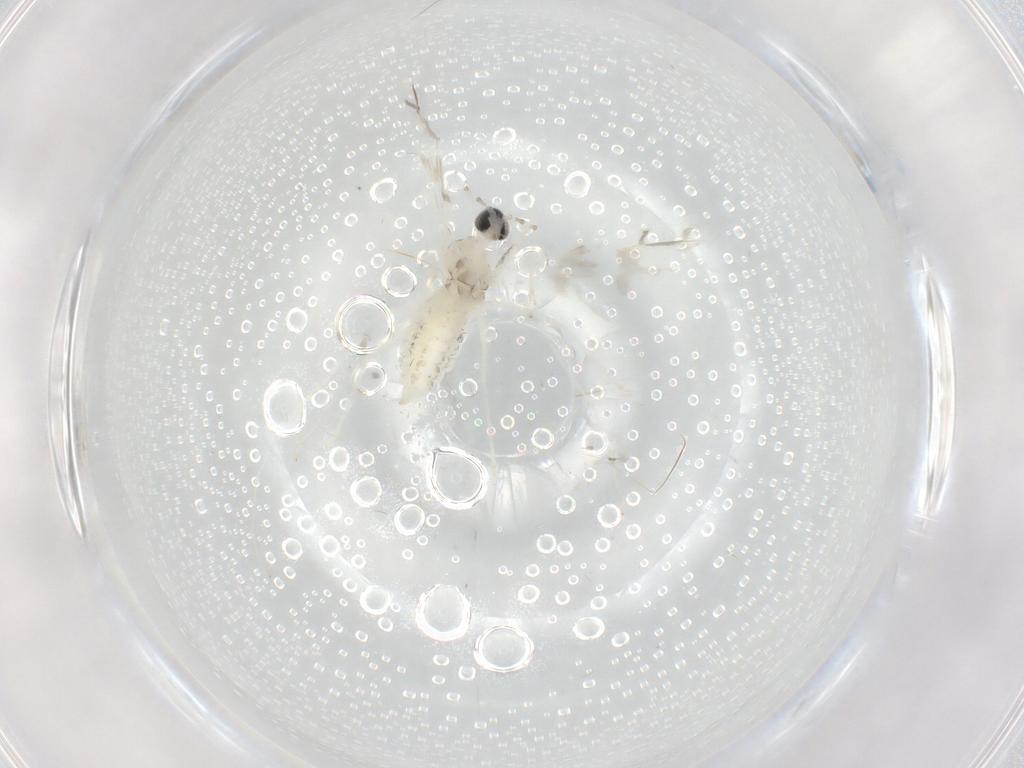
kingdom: Animalia
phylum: Arthropoda
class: Insecta
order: Diptera
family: Cecidomyiidae
